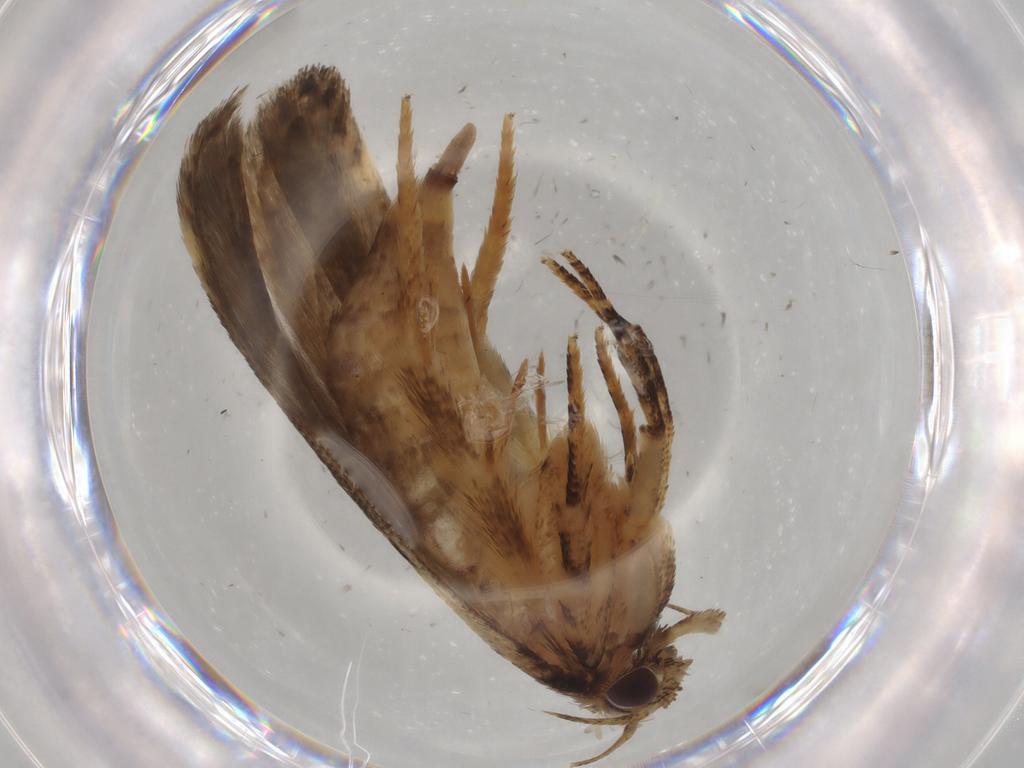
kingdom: Animalia
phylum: Arthropoda
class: Insecta
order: Lepidoptera
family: Gelechiidae
